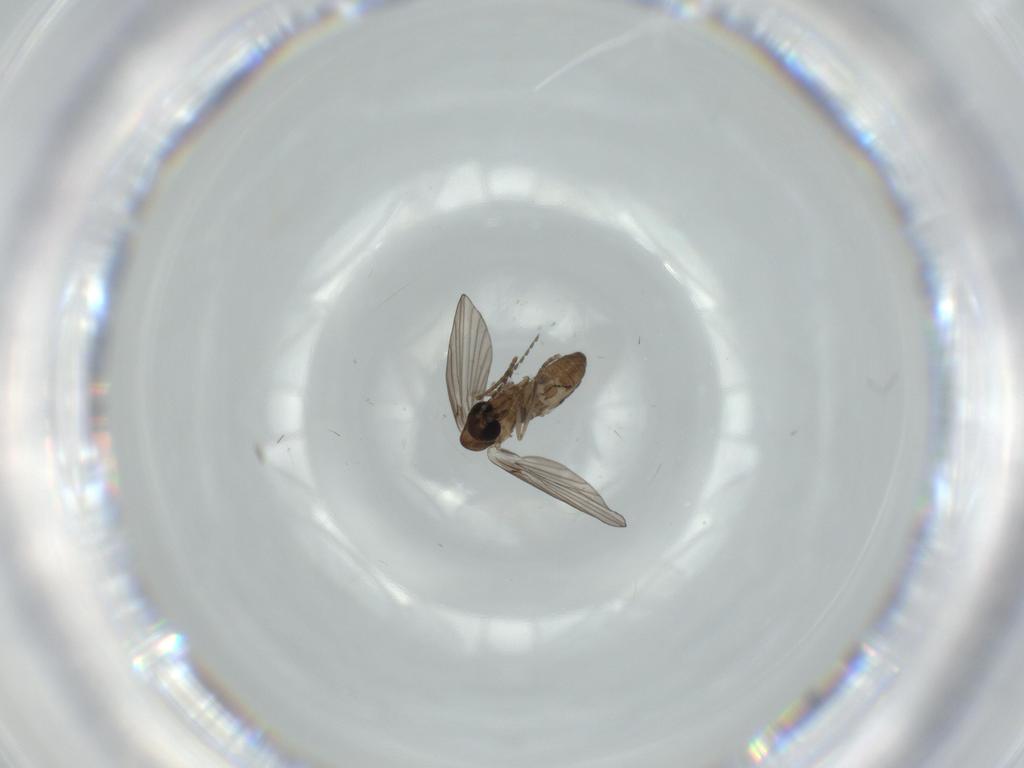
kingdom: Animalia
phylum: Arthropoda
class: Insecta
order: Diptera
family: Psychodidae
